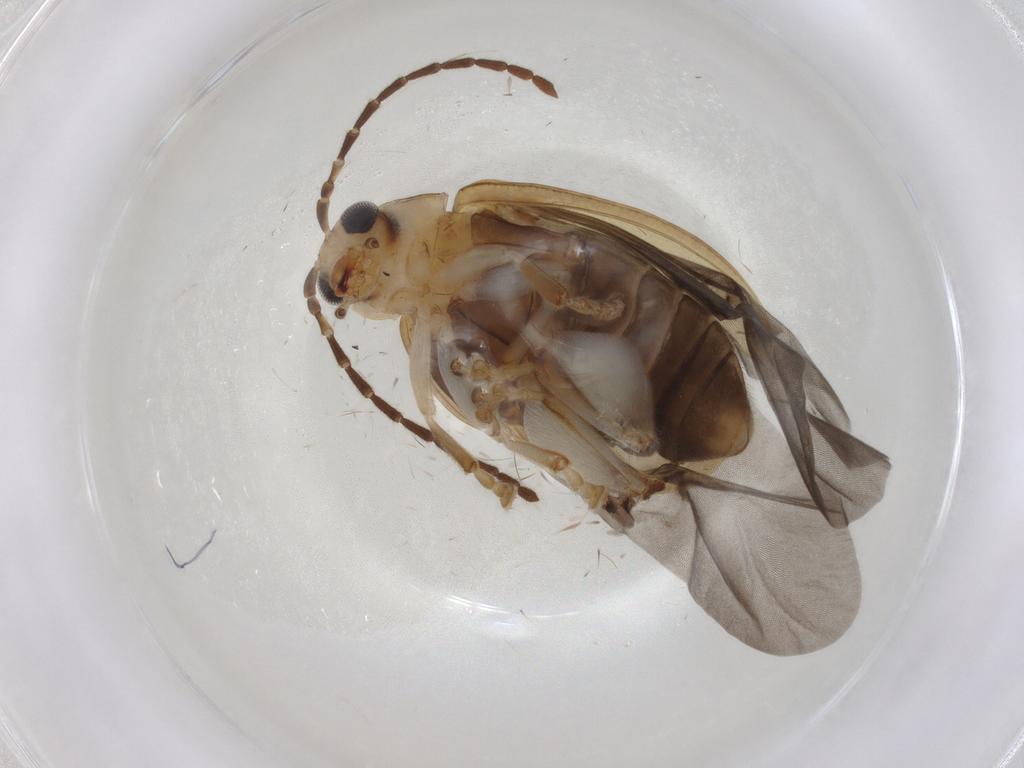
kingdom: Animalia
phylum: Arthropoda
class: Insecta
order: Coleoptera
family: Chrysomelidae
